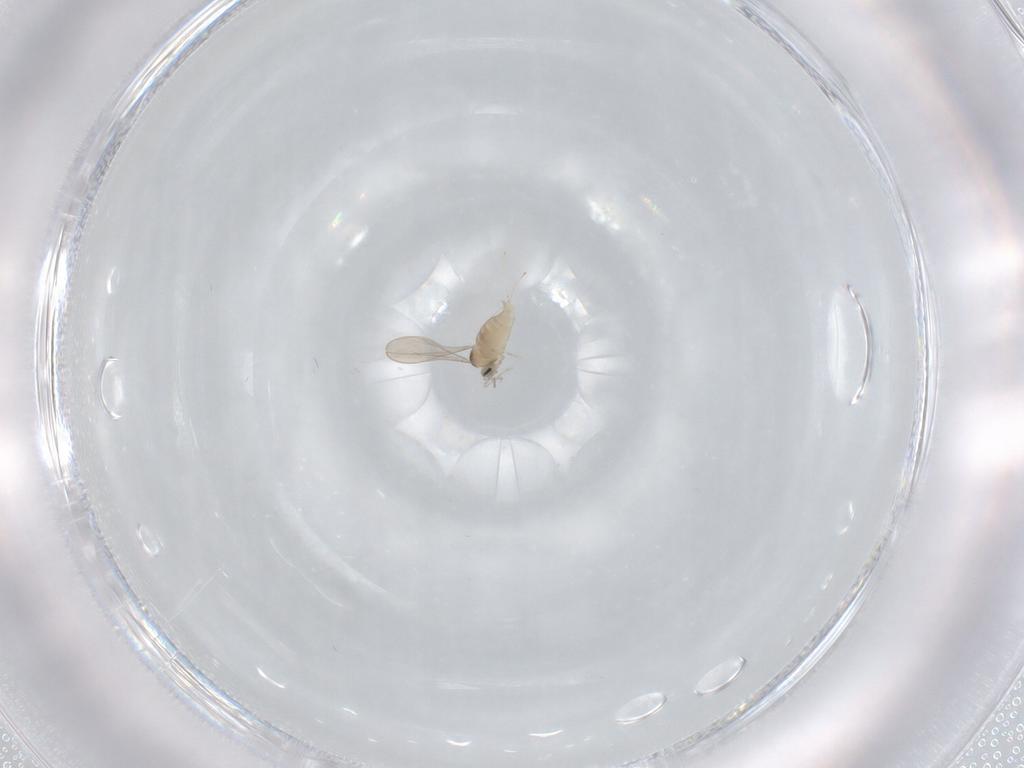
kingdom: Animalia
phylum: Arthropoda
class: Insecta
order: Diptera
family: Cecidomyiidae
